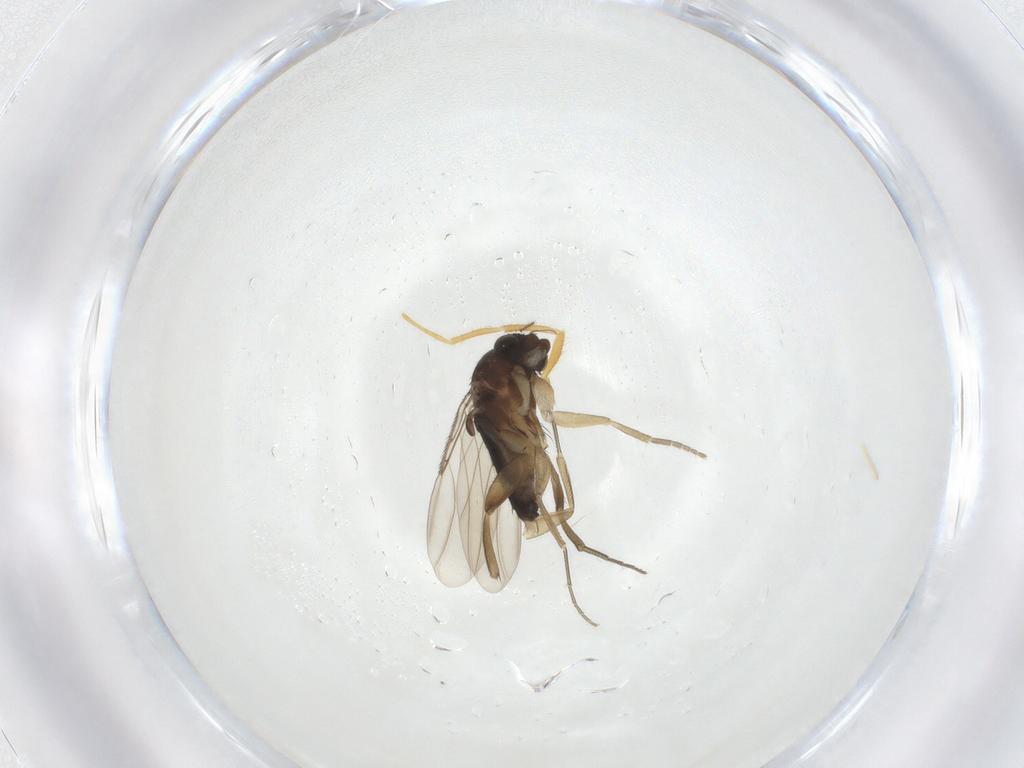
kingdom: Animalia
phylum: Arthropoda
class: Insecta
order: Diptera
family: Phoridae
